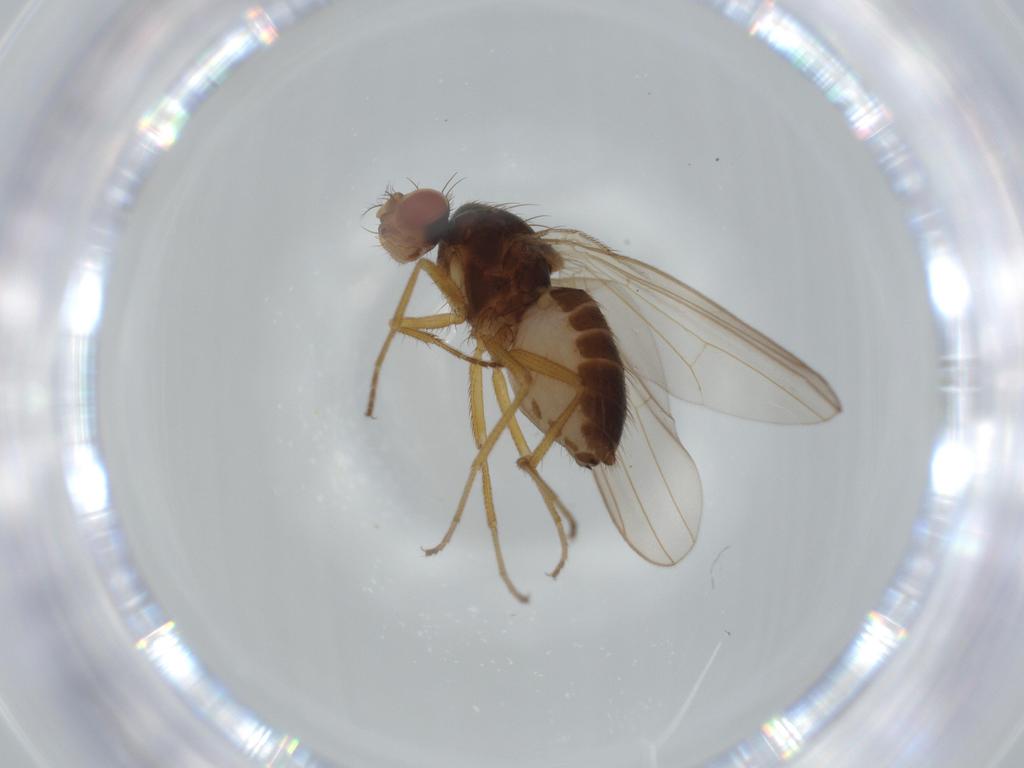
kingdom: Animalia
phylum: Arthropoda
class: Insecta
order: Diptera
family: Drosophilidae
